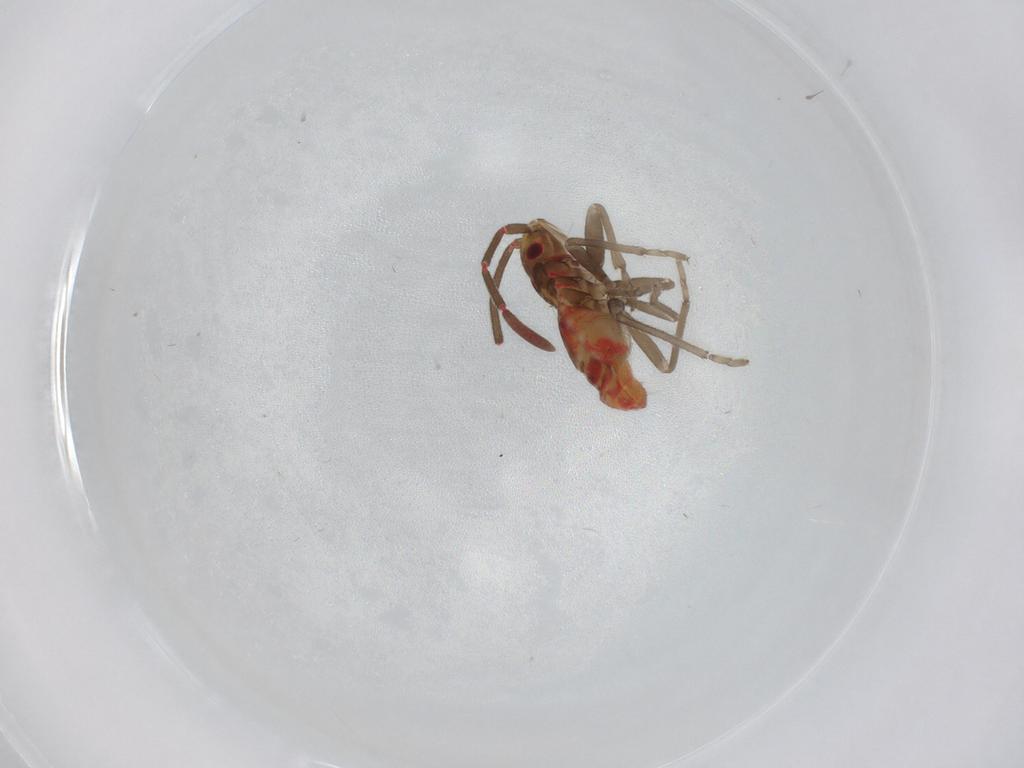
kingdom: Animalia
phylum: Arthropoda
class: Insecta
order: Hemiptera
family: Rhyparochromidae
